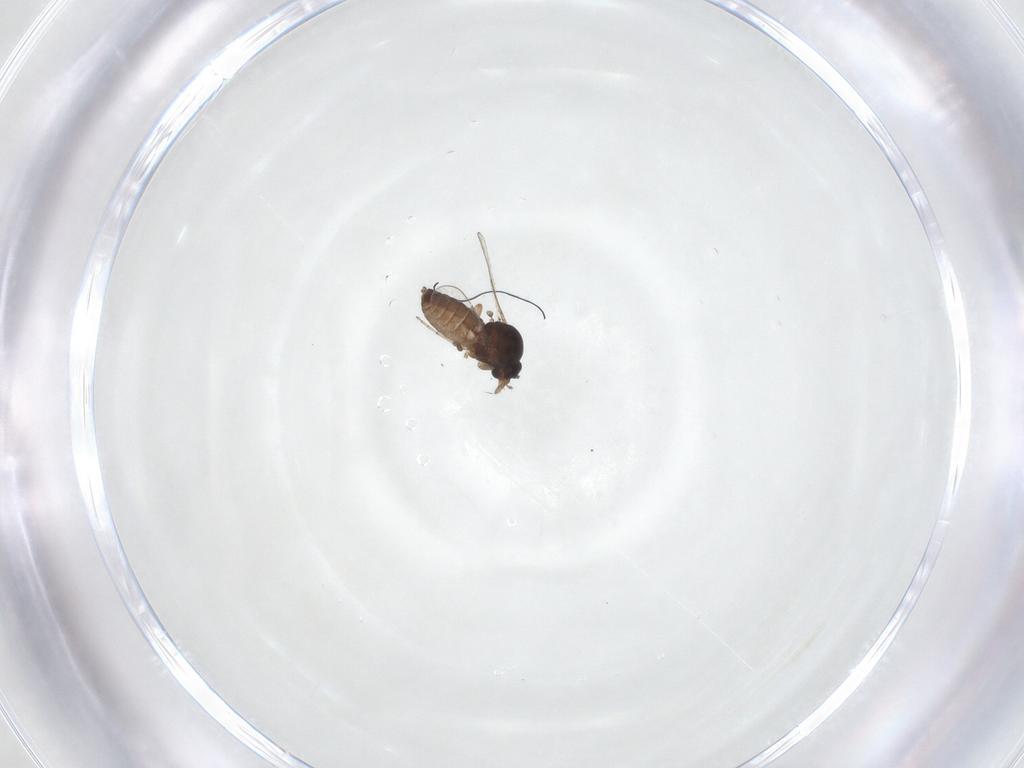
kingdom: Animalia
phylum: Arthropoda
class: Insecta
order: Diptera
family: Ceratopogonidae
